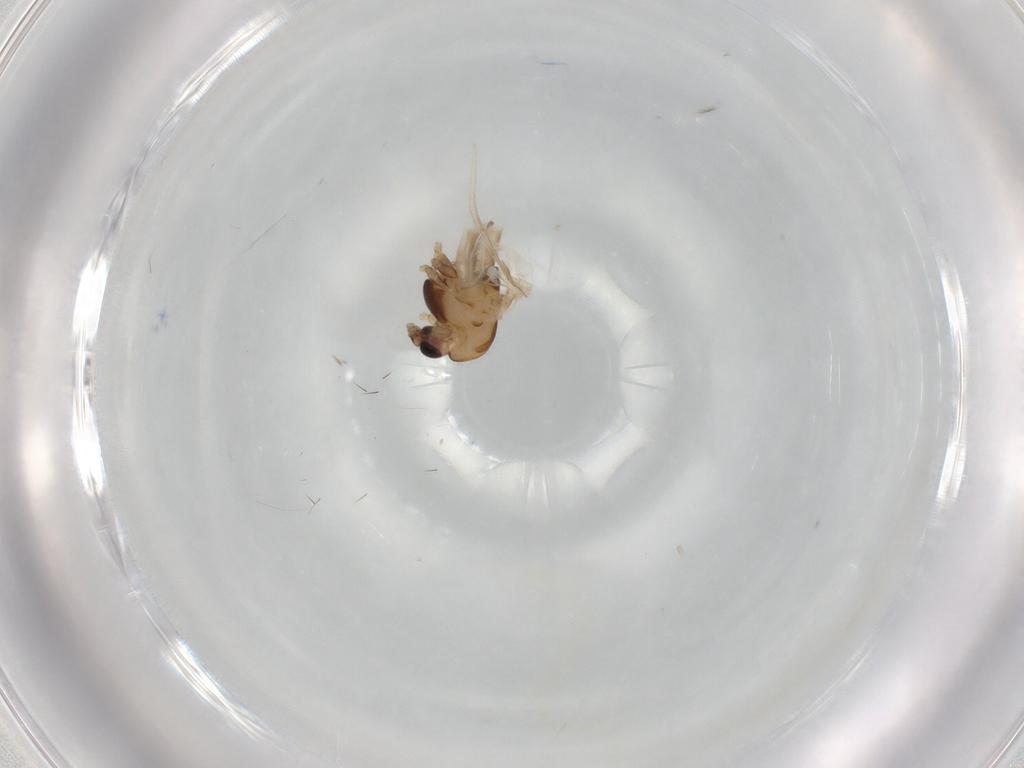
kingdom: Animalia
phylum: Arthropoda
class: Insecta
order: Diptera
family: Cecidomyiidae
